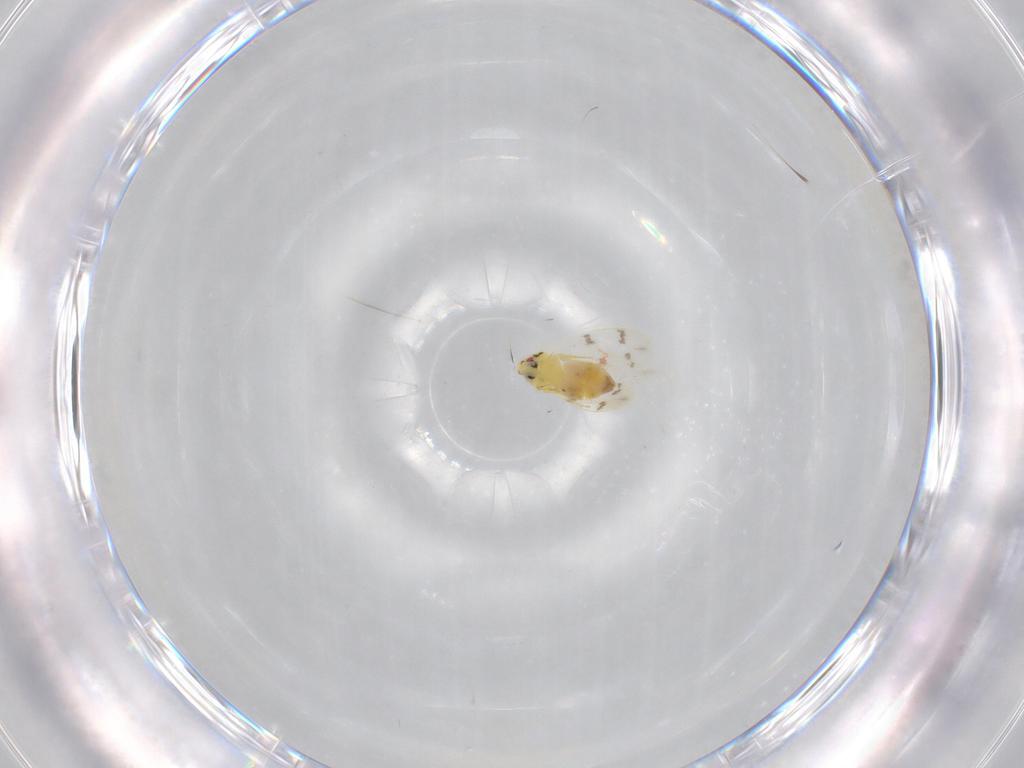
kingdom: Animalia
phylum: Arthropoda
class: Insecta
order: Hemiptera
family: Aleyrodidae
